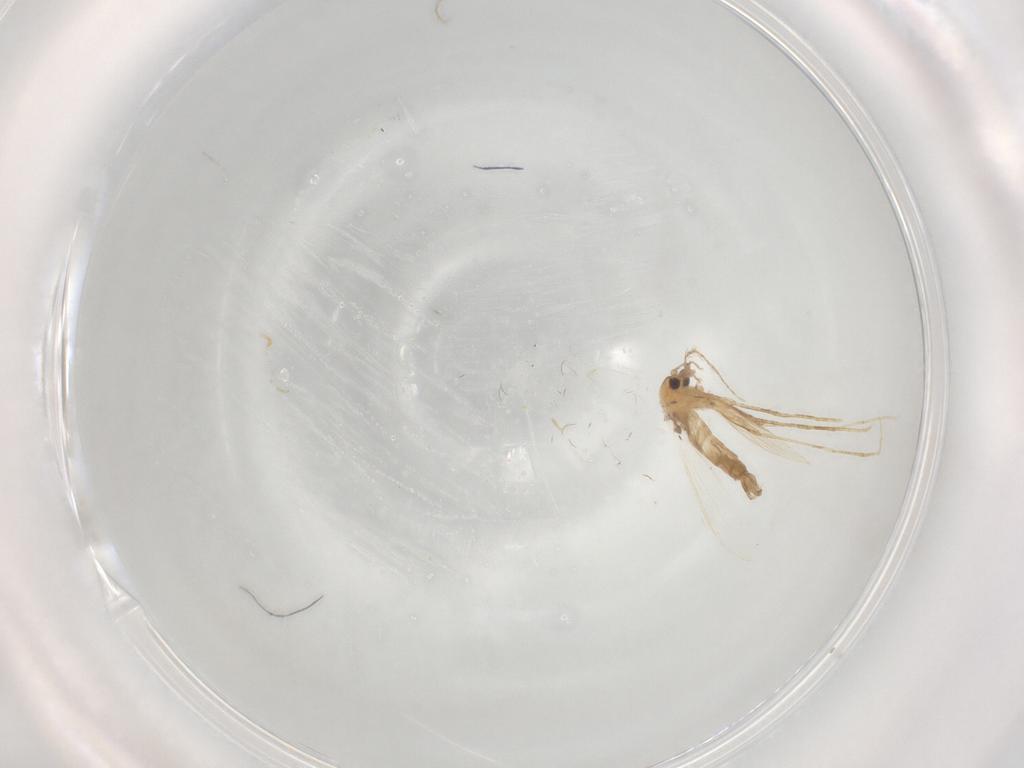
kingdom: Animalia
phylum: Arthropoda
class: Insecta
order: Diptera
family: Psychodidae
